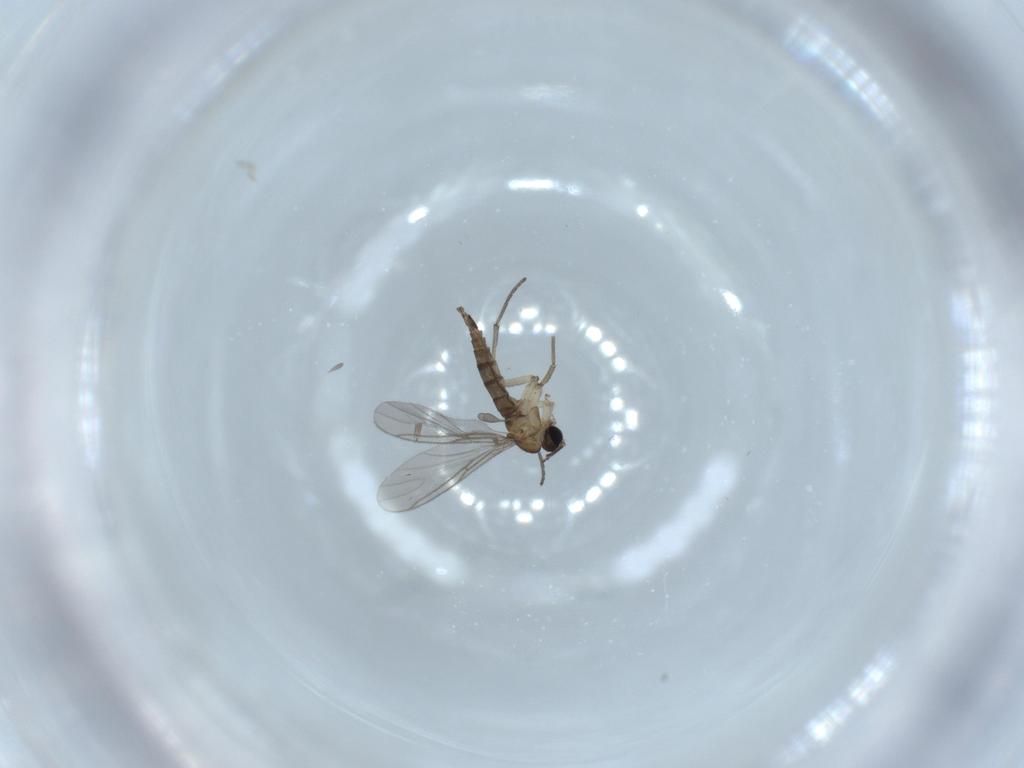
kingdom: Animalia
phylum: Arthropoda
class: Insecta
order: Diptera
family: Sciaridae
